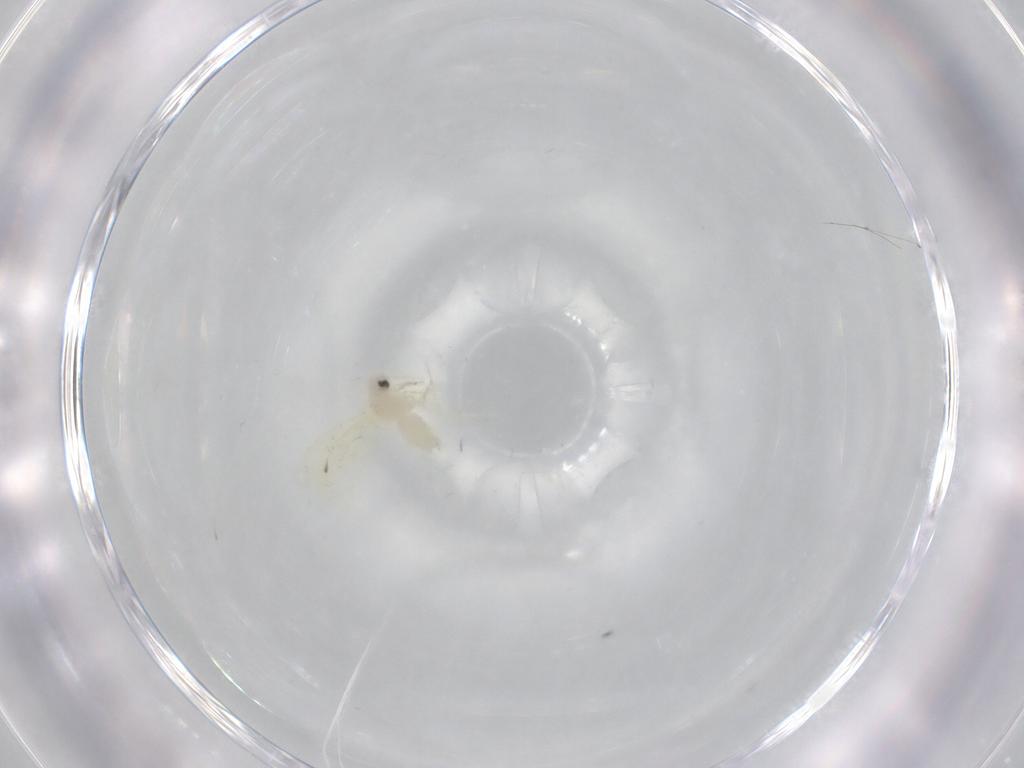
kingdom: Animalia
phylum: Arthropoda
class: Insecta
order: Hemiptera
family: Aleyrodidae
